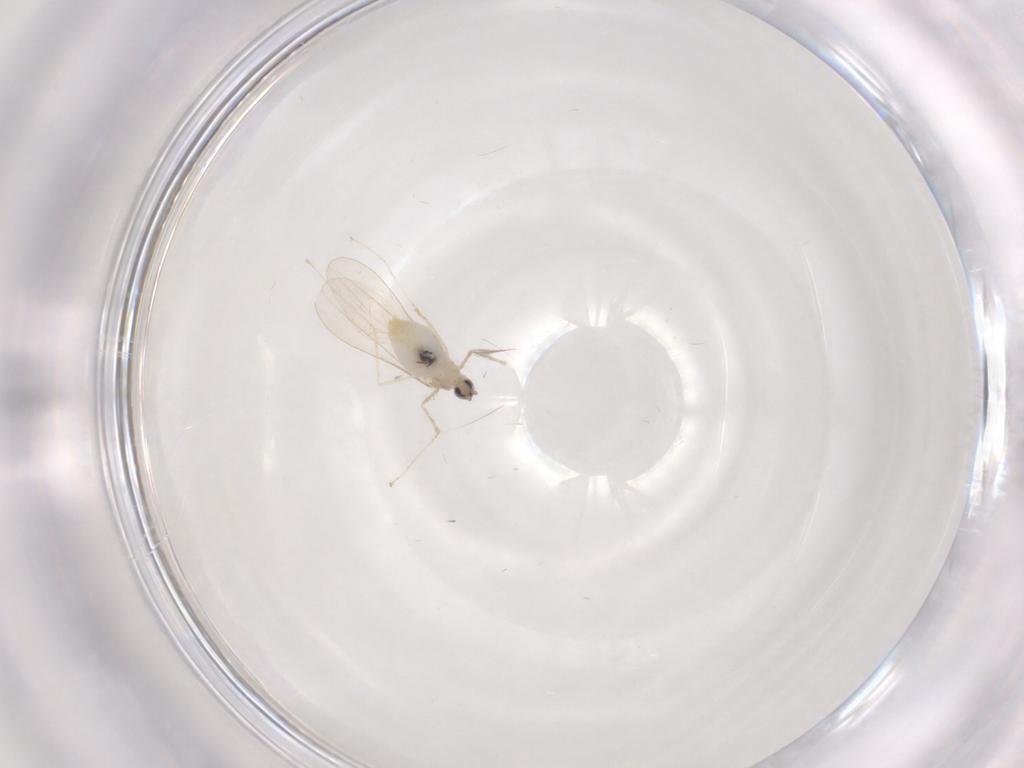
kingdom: Animalia
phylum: Arthropoda
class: Insecta
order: Diptera
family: Cecidomyiidae
